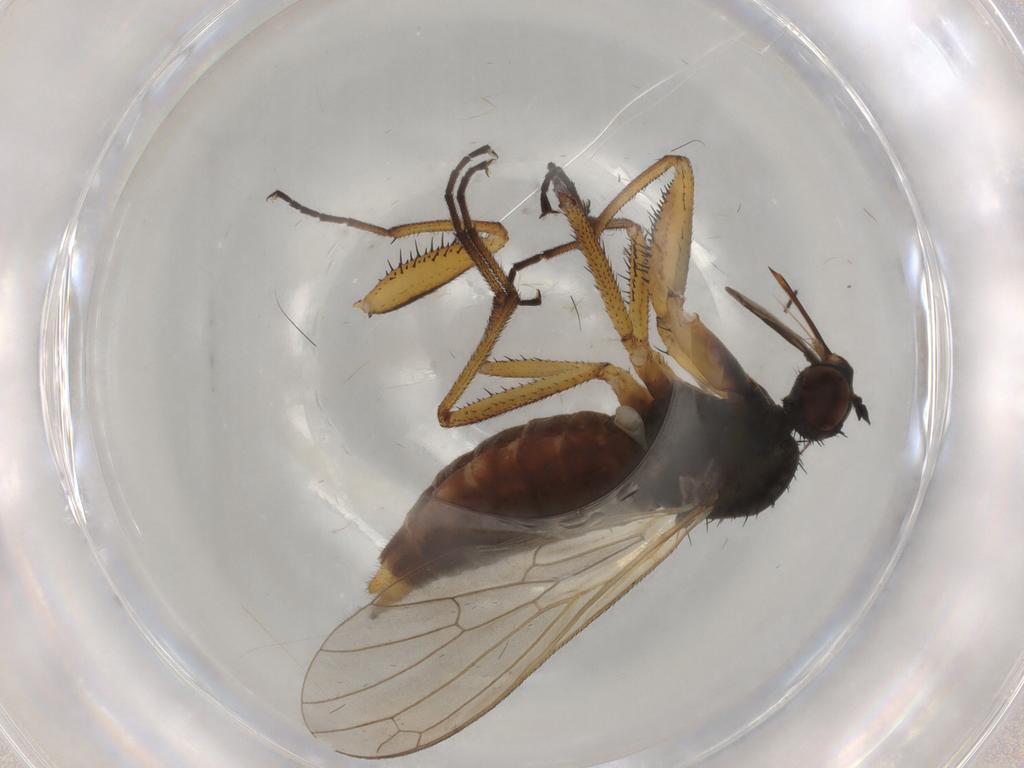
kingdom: Animalia
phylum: Arthropoda
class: Insecta
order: Diptera
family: Empididae
